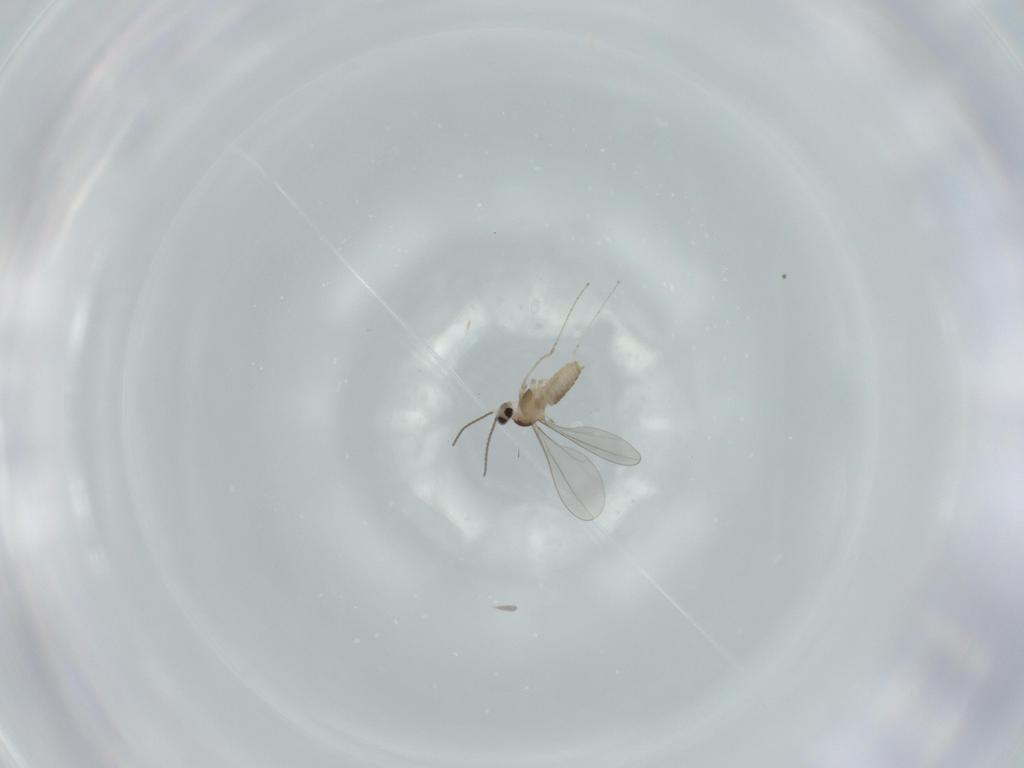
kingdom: Animalia
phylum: Arthropoda
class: Insecta
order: Diptera
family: Cecidomyiidae
